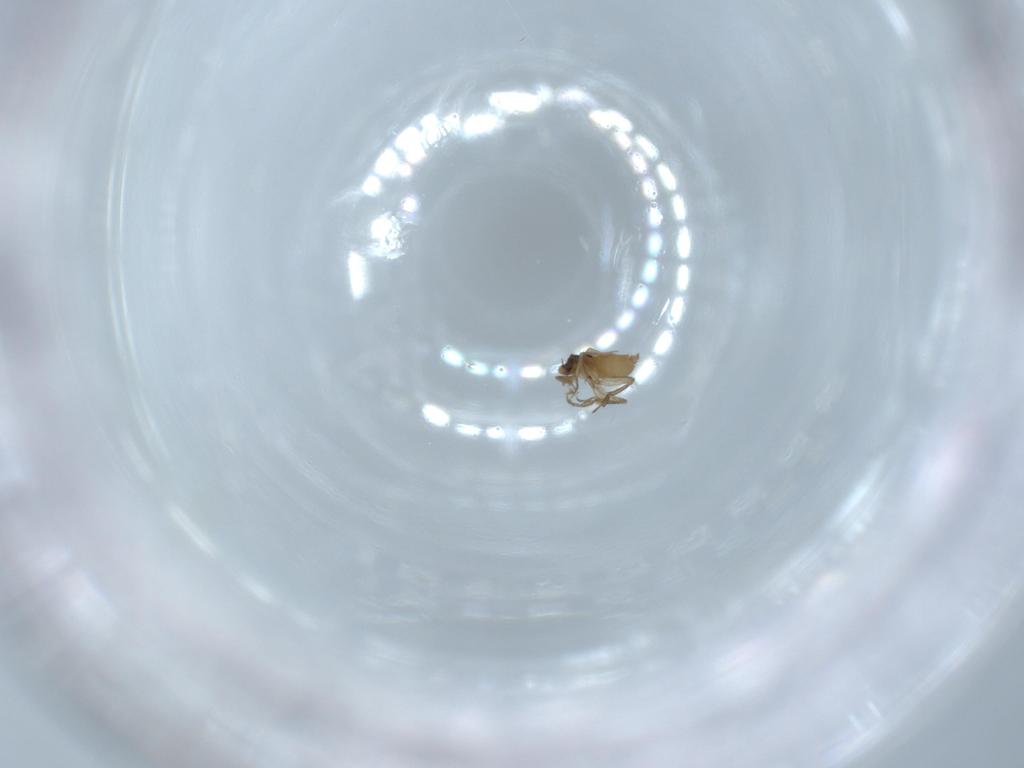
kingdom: Animalia
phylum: Arthropoda
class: Insecta
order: Diptera
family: Phoridae
